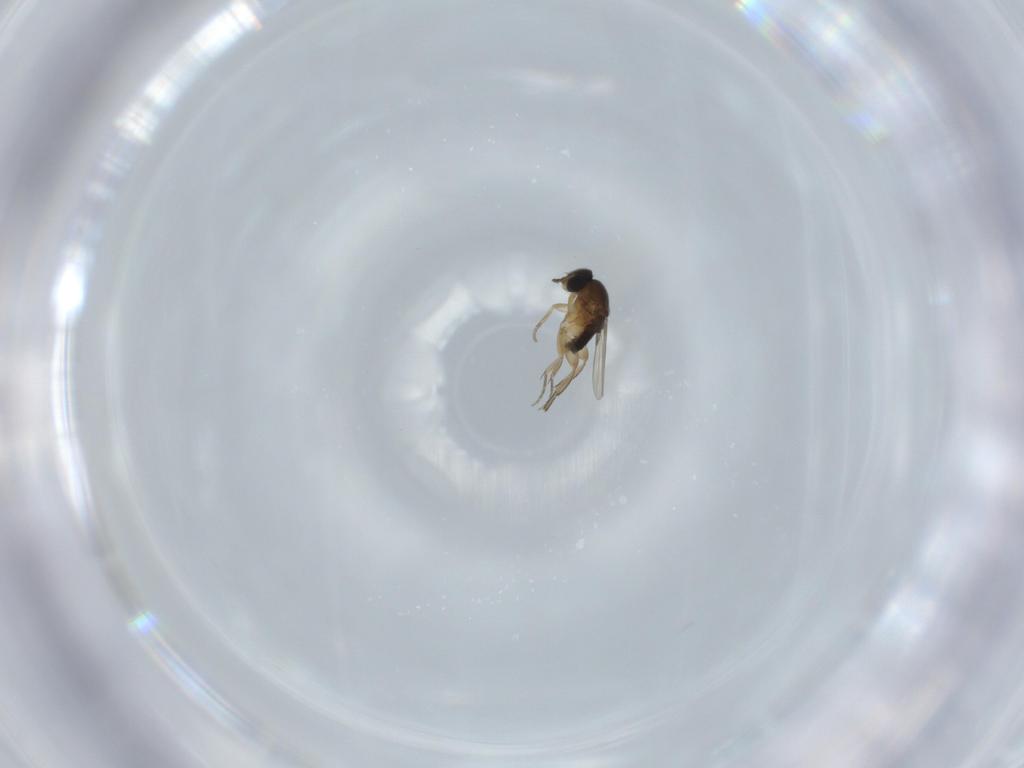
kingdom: Animalia
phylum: Arthropoda
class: Insecta
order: Diptera
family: Phoridae
